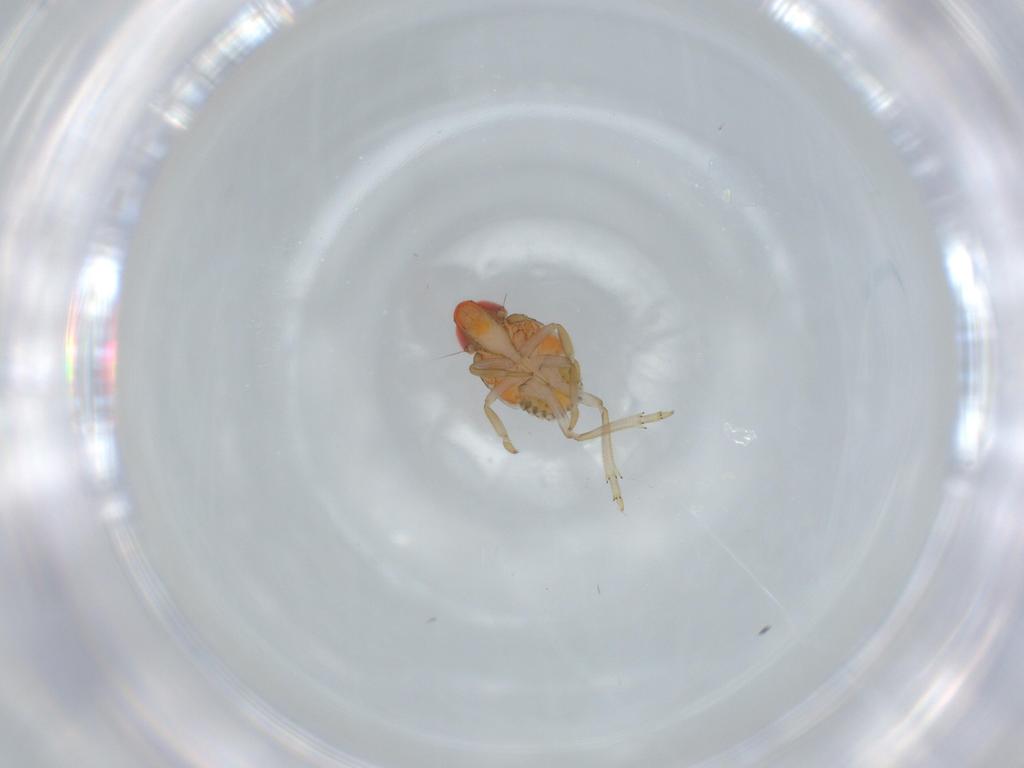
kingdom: Animalia
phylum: Arthropoda
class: Insecta
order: Hemiptera
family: Fulgoroidea_incertae_sedis
